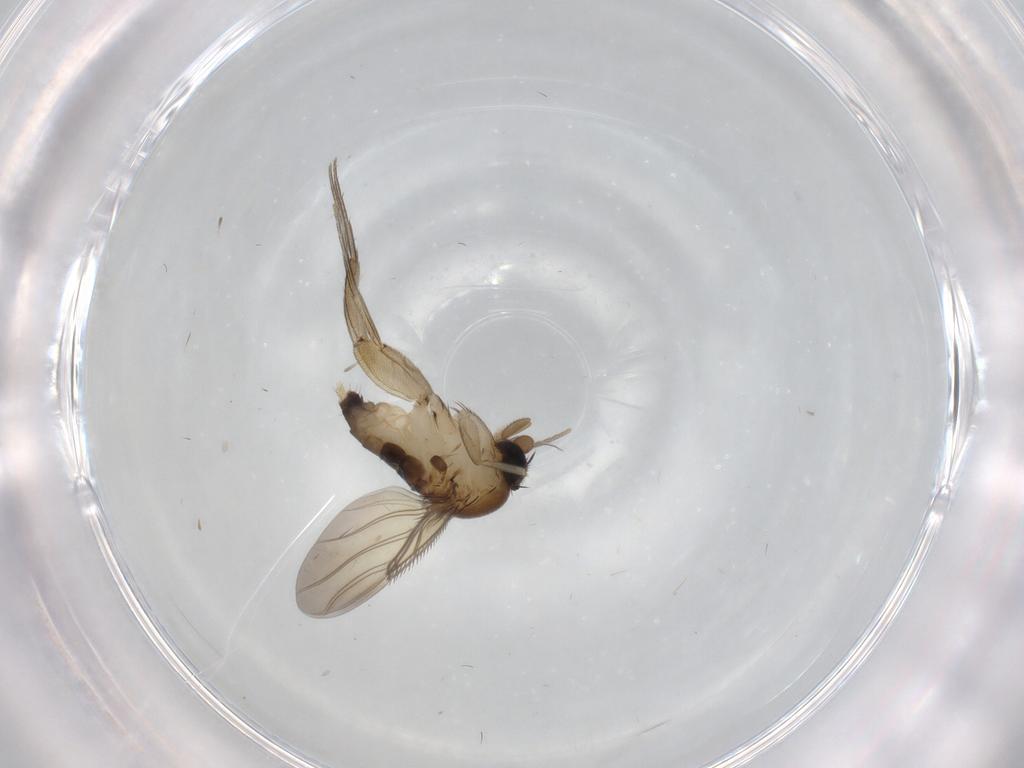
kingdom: Animalia
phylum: Arthropoda
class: Insecta
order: Diptera
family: Phoridae
